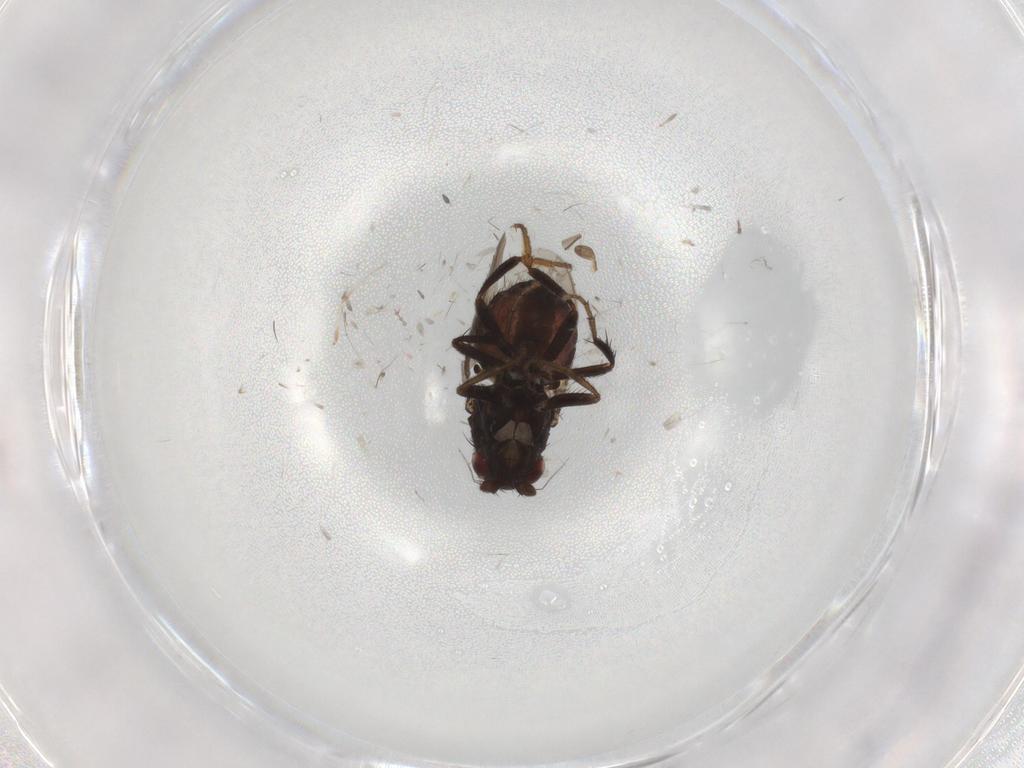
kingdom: Animalia
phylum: Arthropoda
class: Insecta
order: Diptera
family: Sphaeroceridae
